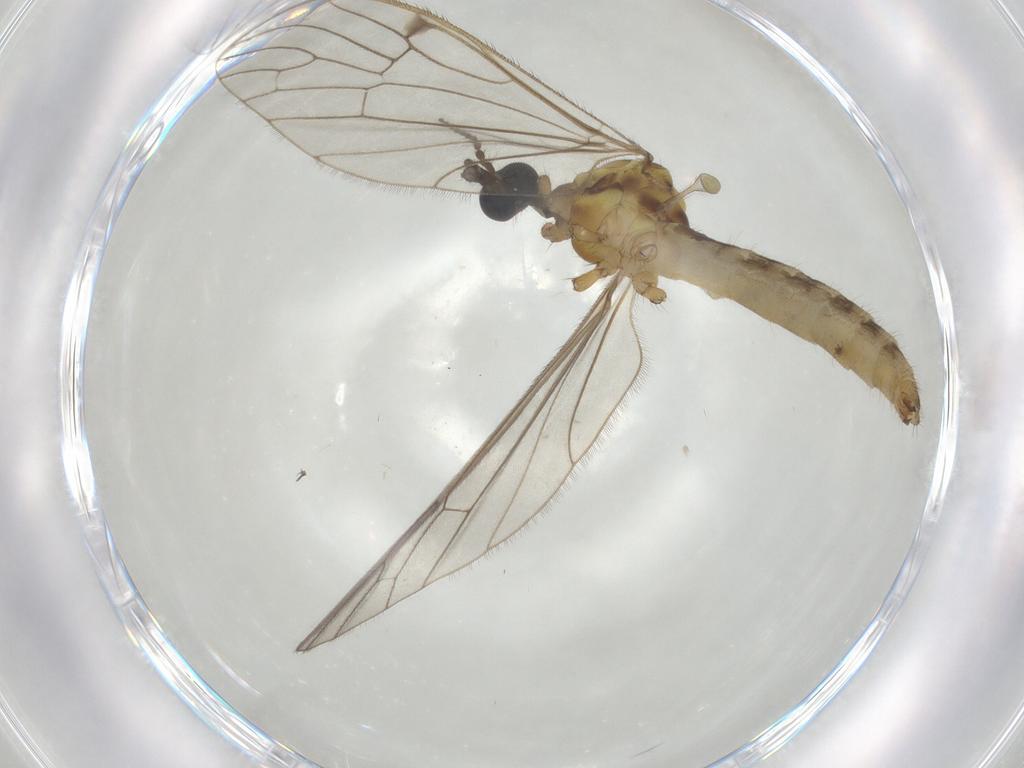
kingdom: Animalia
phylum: Arthropoda
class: Insecta
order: Diptera
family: Limoniidae
